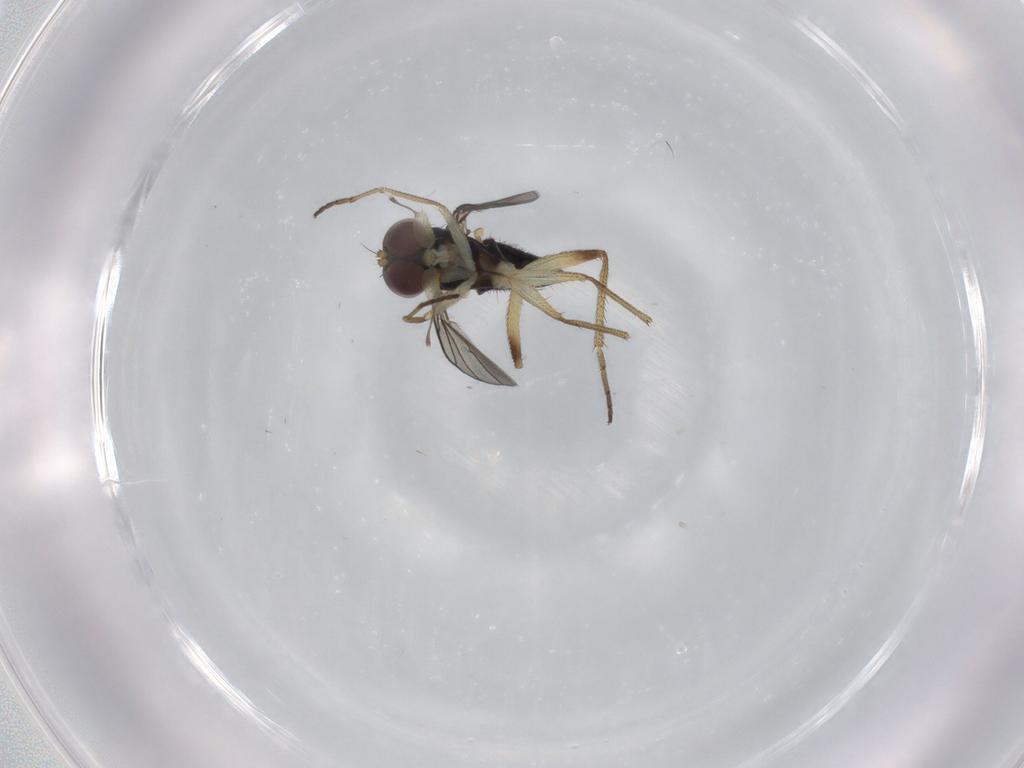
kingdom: Animalia
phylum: Arthropoda
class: Insecta
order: Diptera
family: Dolichopodidae
